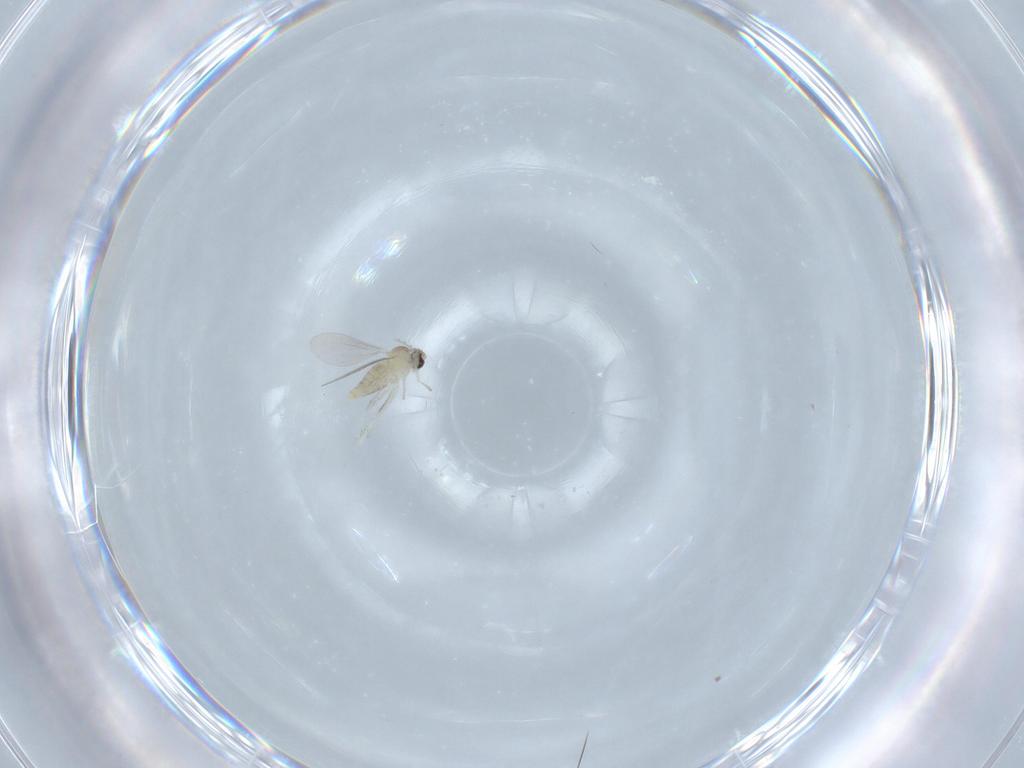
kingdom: Animalia
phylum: Arthropoda
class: Insecta
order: Diptera
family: Cecidomyiidae
